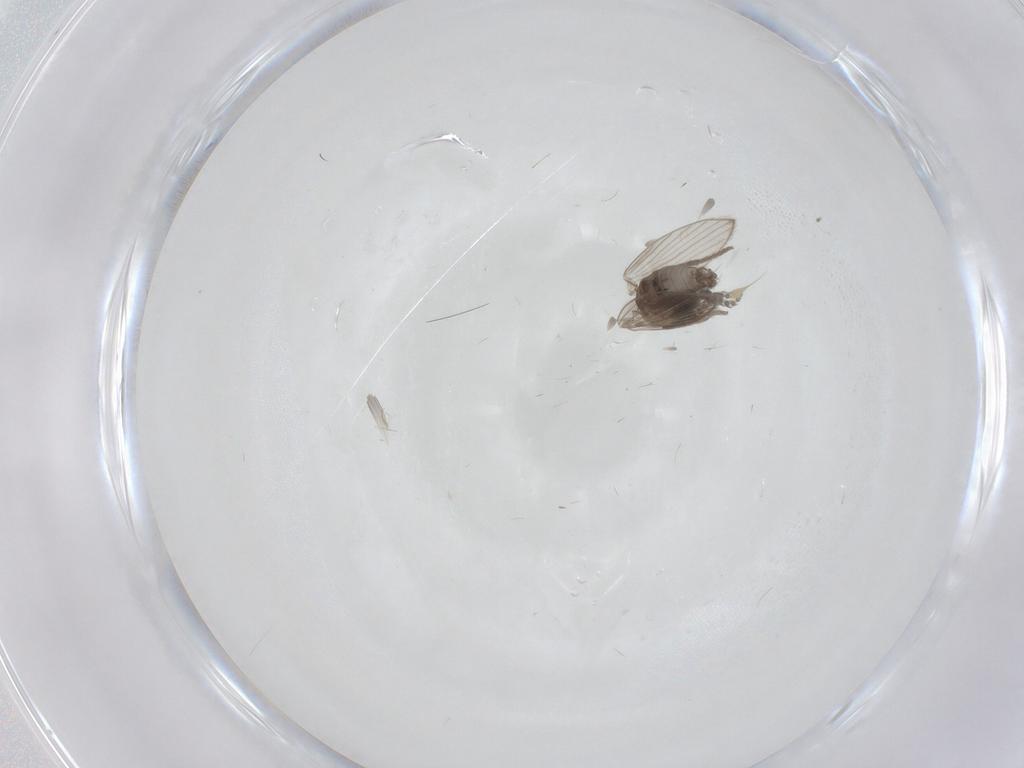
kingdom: Animalia
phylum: Arthropoda
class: Insecta
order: Diptera
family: Psychodidae
